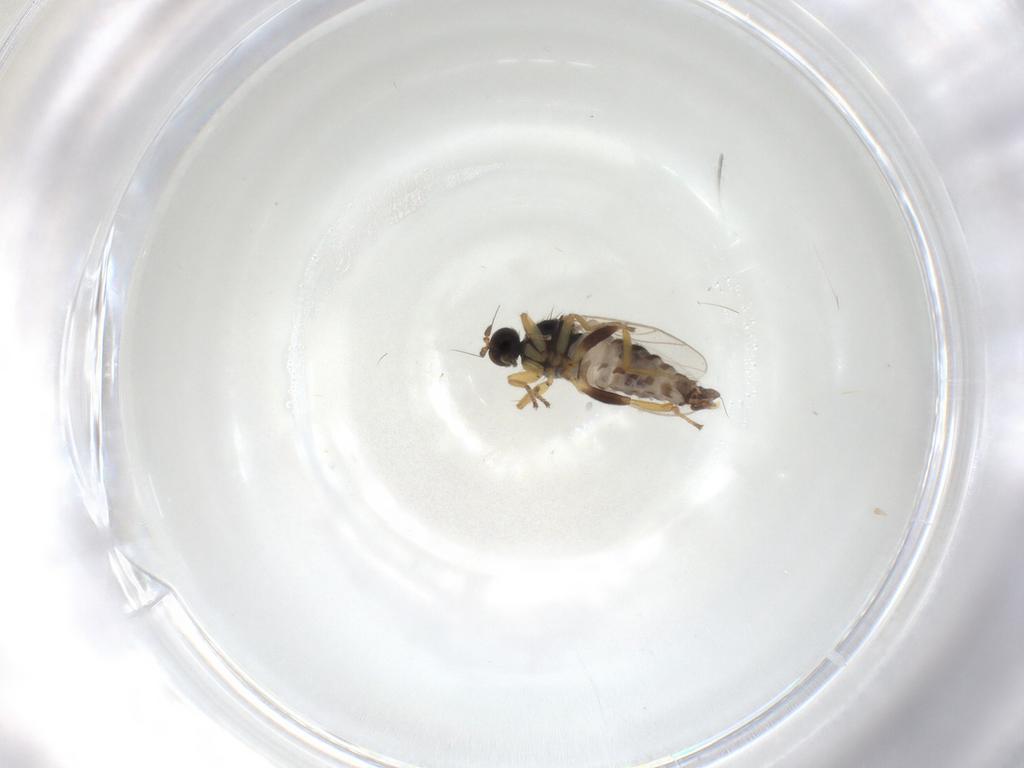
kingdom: Animalia
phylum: Arthropoda
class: Insecta
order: Diptera
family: Hybotidae
